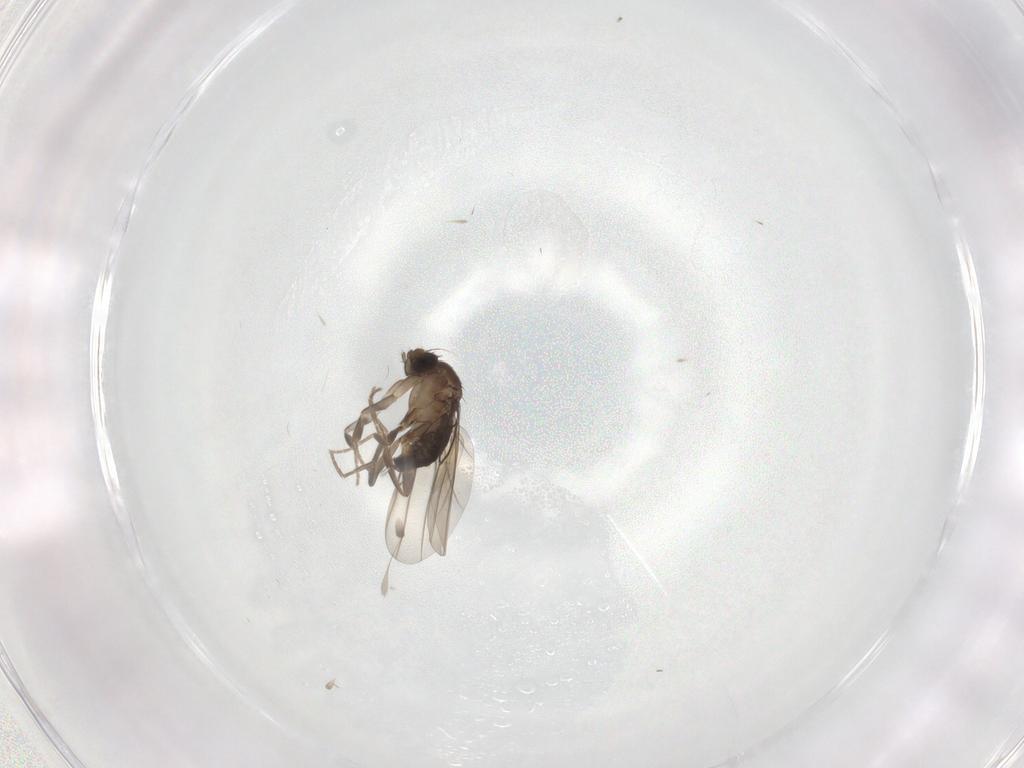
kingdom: Animalia
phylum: Arthropoda
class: Insecta
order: Diptera
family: Phoridae
